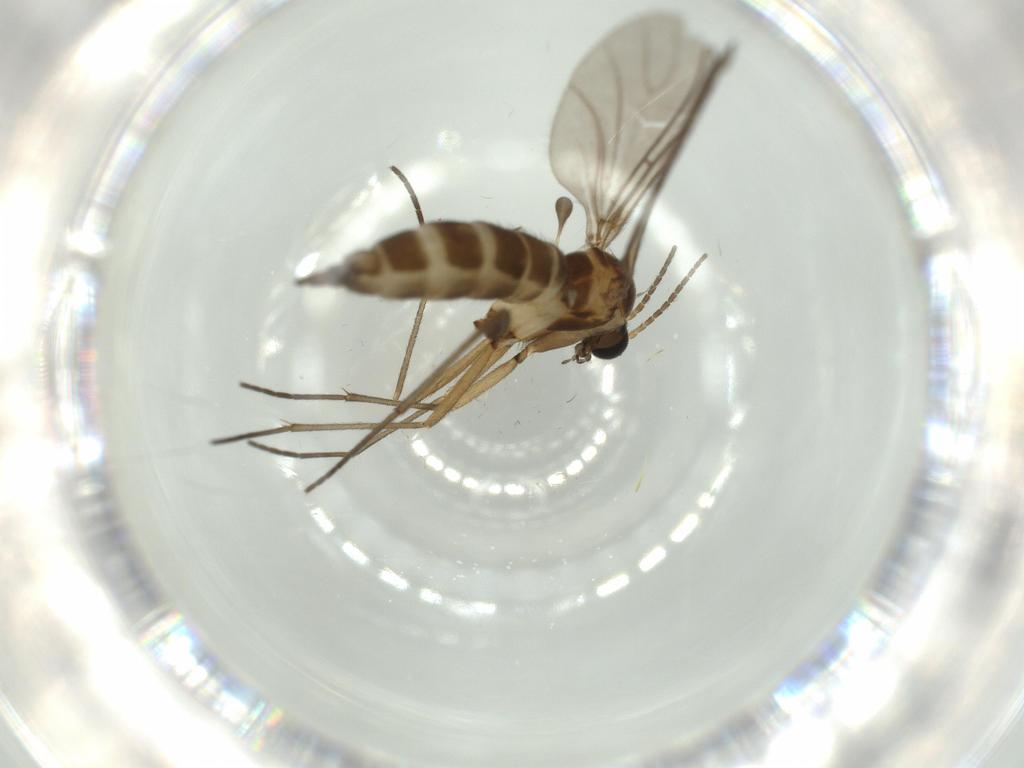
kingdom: Animalia
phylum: Arthropoda
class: Insecta
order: Diptera
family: Sciaridae
